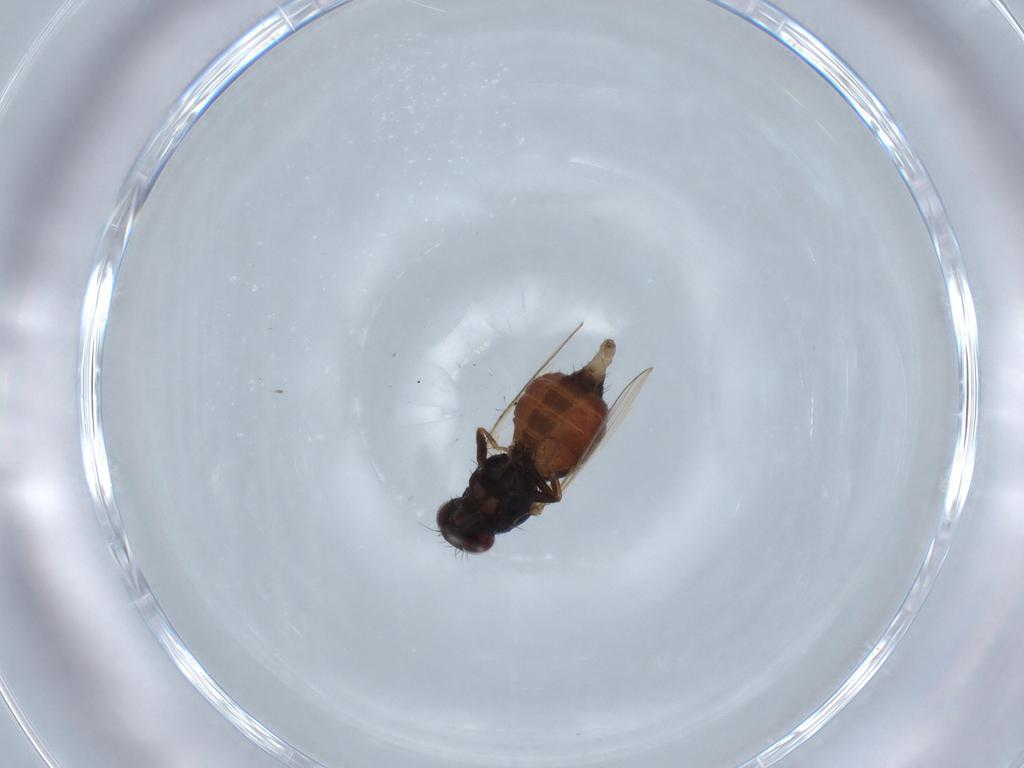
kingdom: Animalia
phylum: Arthropoda
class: Insecta
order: Diptera
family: Carnidae
